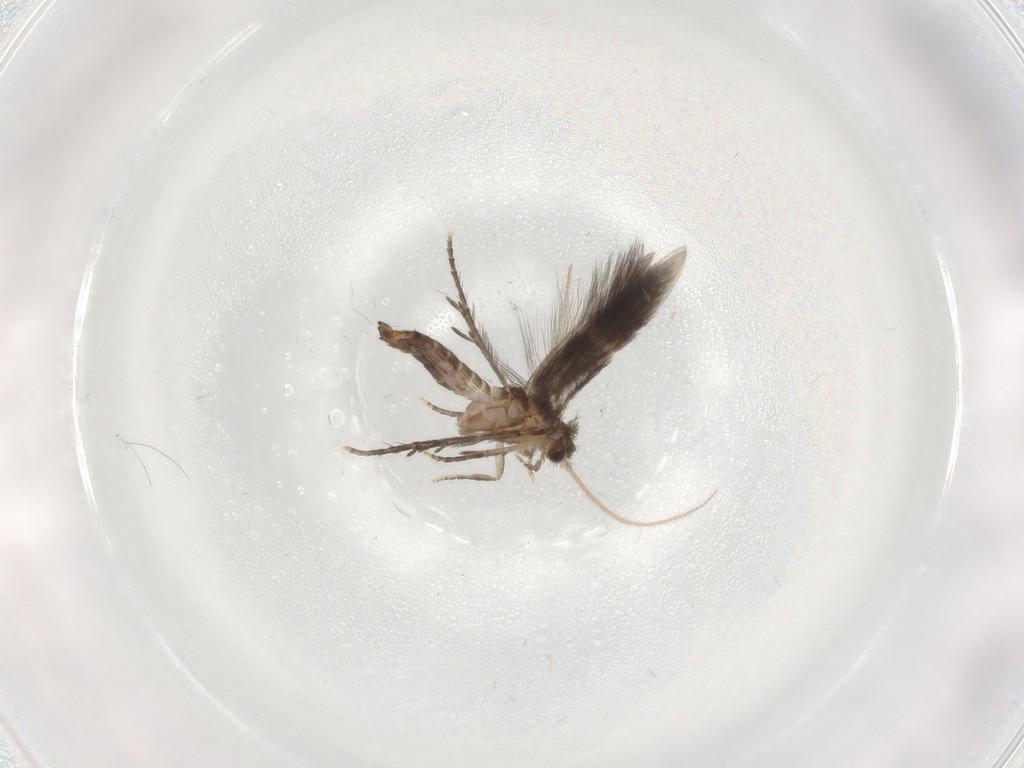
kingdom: Animalia
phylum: Arthropoda
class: Insecta
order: Trichoptera
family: Hydroptilidae
